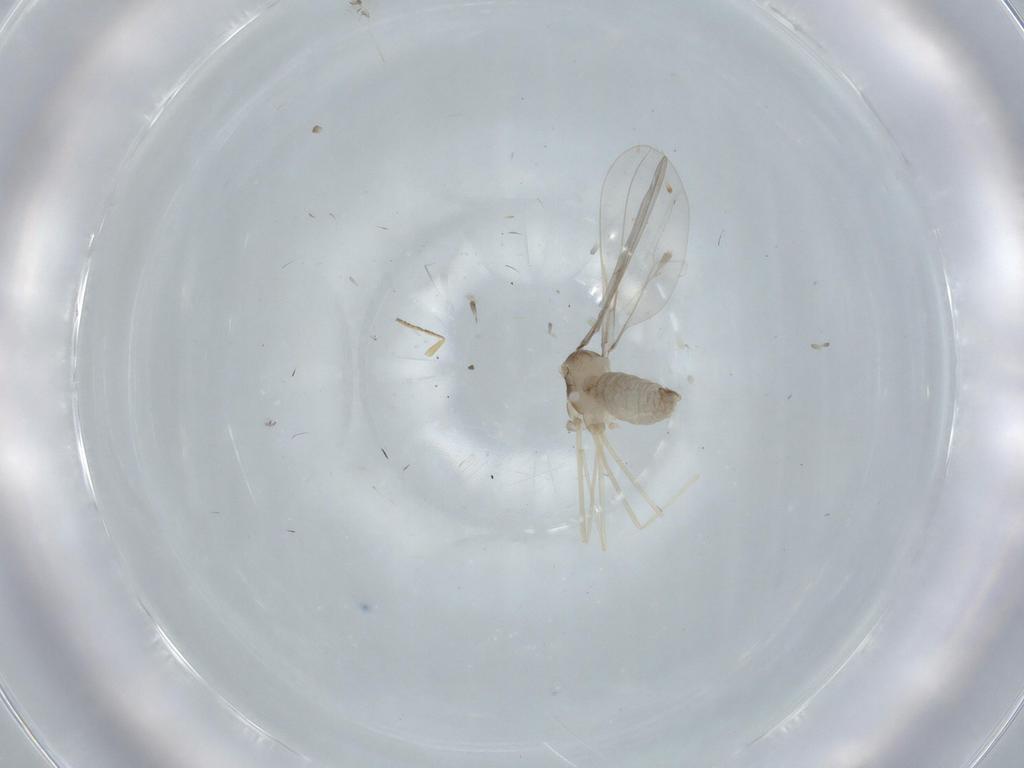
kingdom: Animalia
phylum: Arthropoda
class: Insecta
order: Diptera
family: Cecidomyiidae
